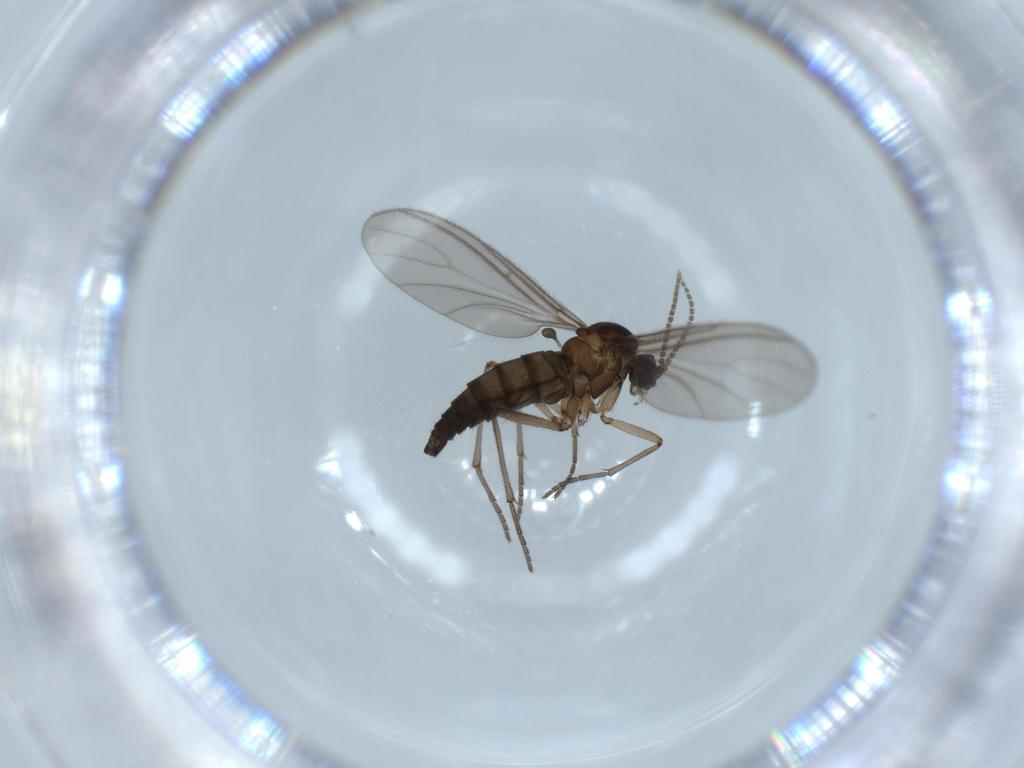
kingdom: Animalia
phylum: Arthropoda
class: Insecta
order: Diptera
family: Sciaridae
